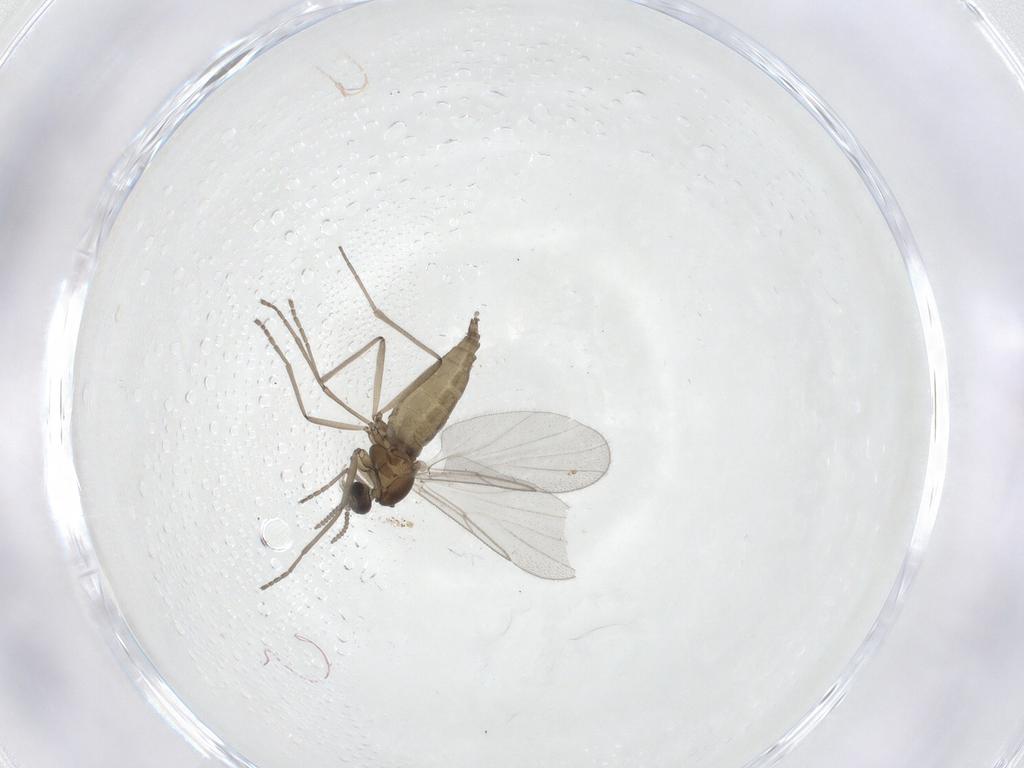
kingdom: Animalia
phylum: Arthropoda
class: Insecta
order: Diptera
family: Cecidomyiidae
